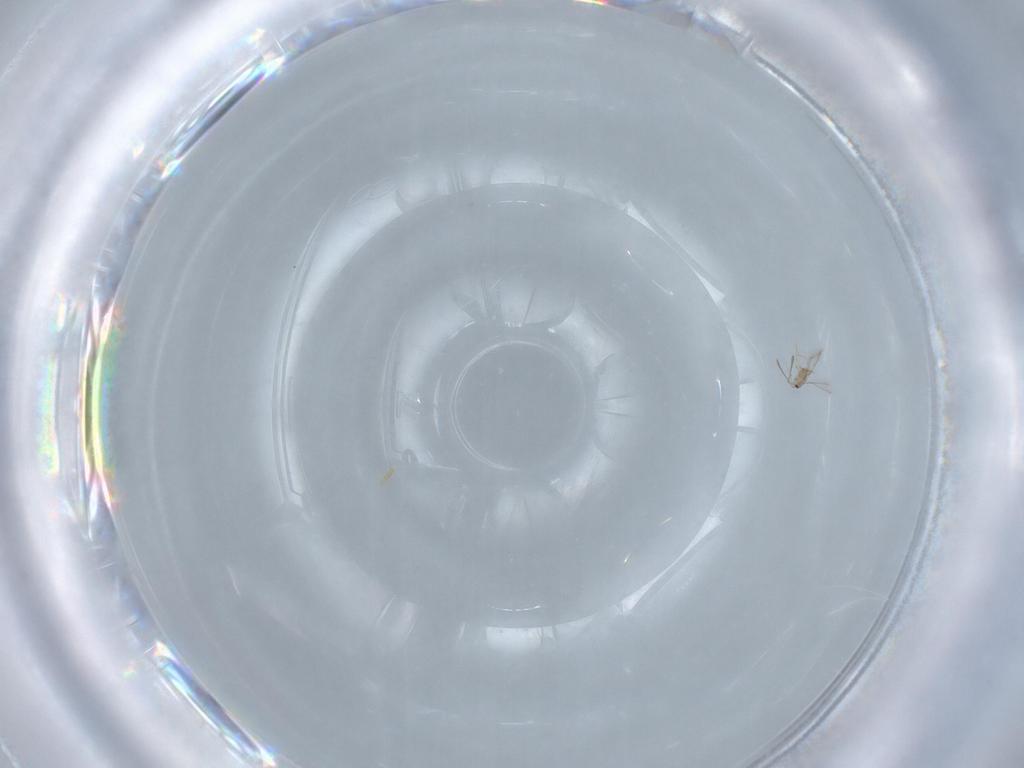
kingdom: Animalia
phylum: Arthropoda
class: Insecta
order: Hymenoptera
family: Mymaridae
